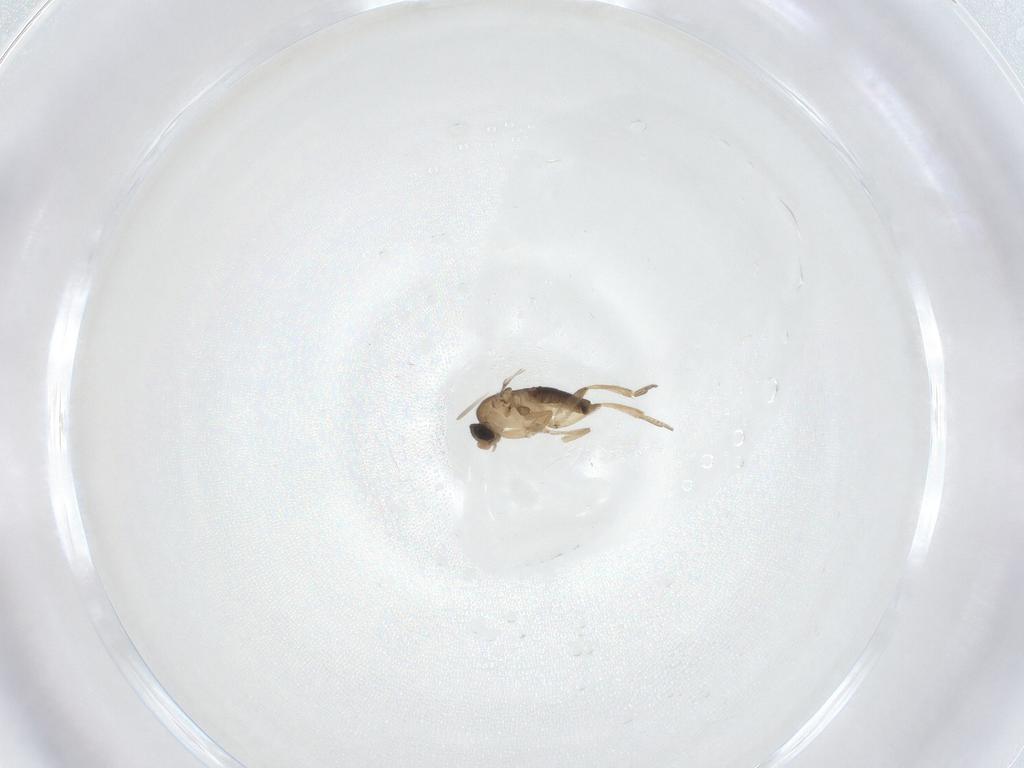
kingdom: Animalia
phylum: Arthropoda
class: Insecta
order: Diptera
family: Phoridae
